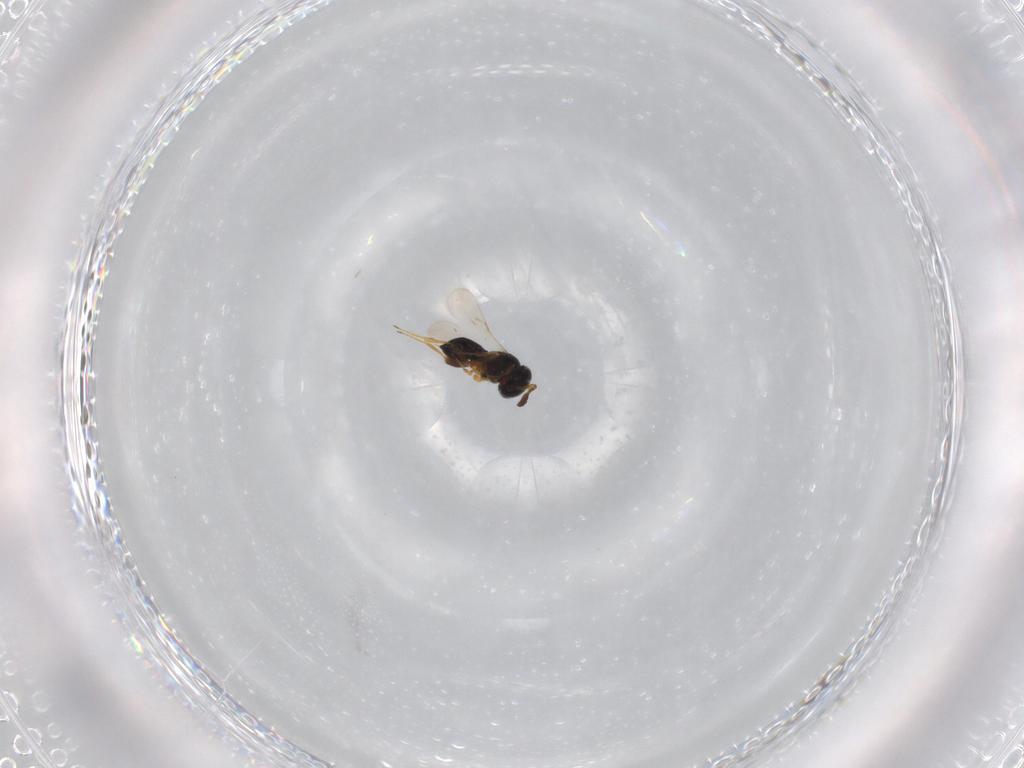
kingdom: Animalia
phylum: Arthropoda
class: Insecta
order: Hymenoptera
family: Scelionidae
